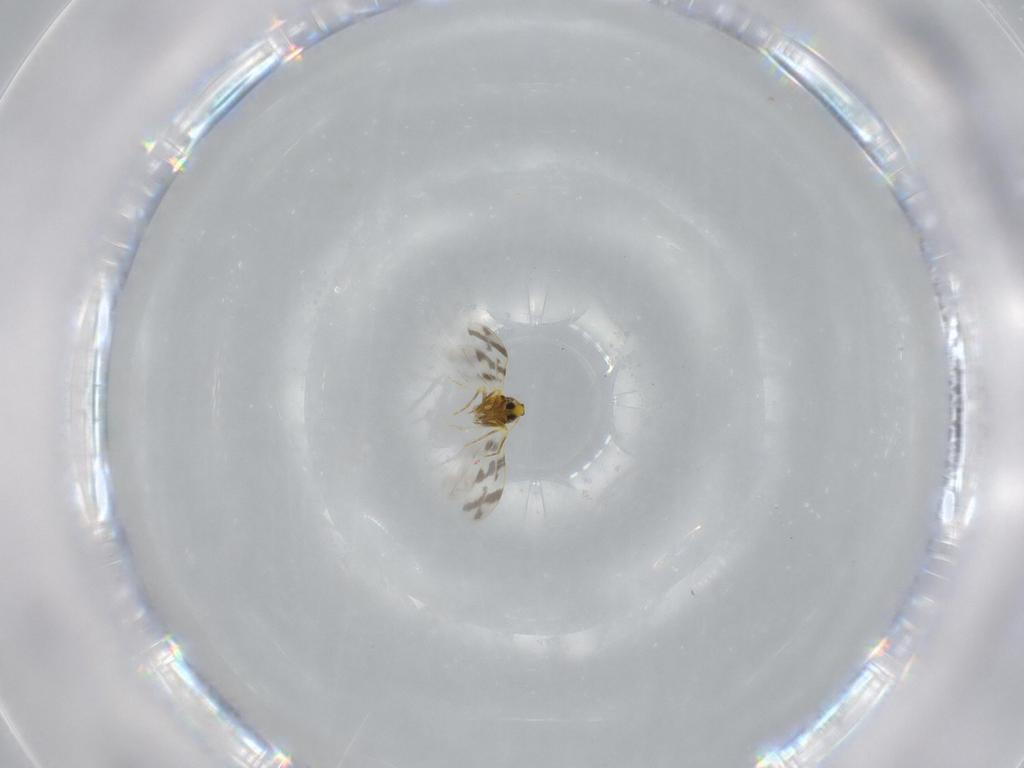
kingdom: Animalia
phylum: Arthropoda
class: Insecta
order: Hemiptera
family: Aleyrodidae
